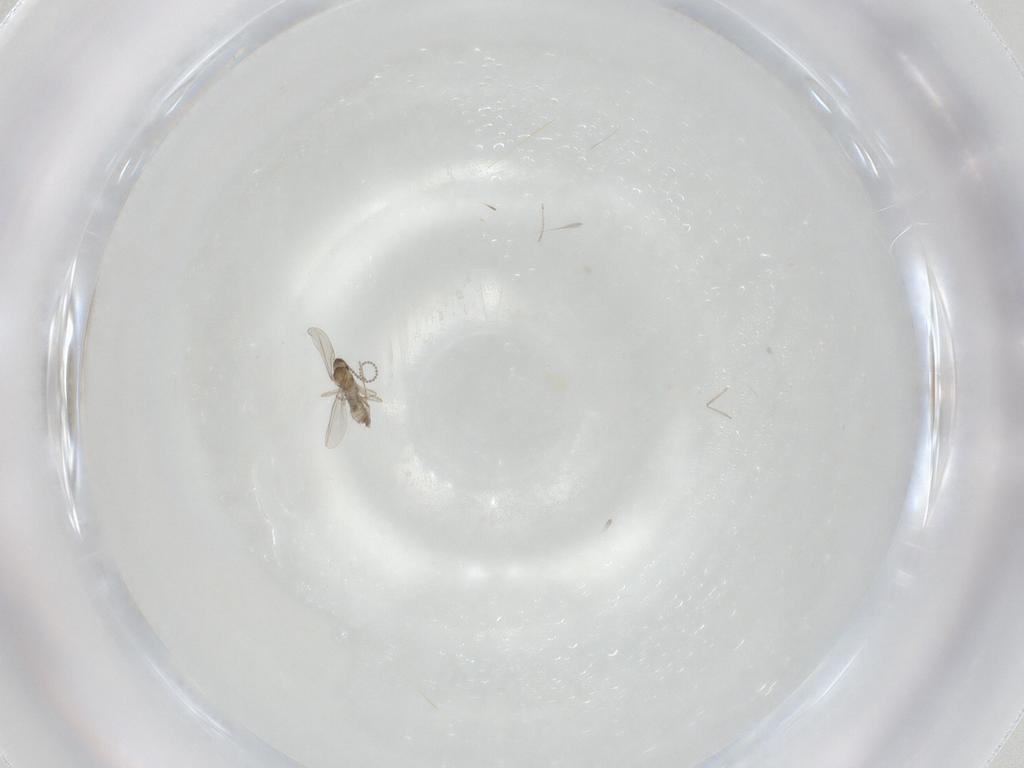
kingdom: Animalia
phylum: Arthropoda
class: Insecta
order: Diptera
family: Cecidomyiidae
